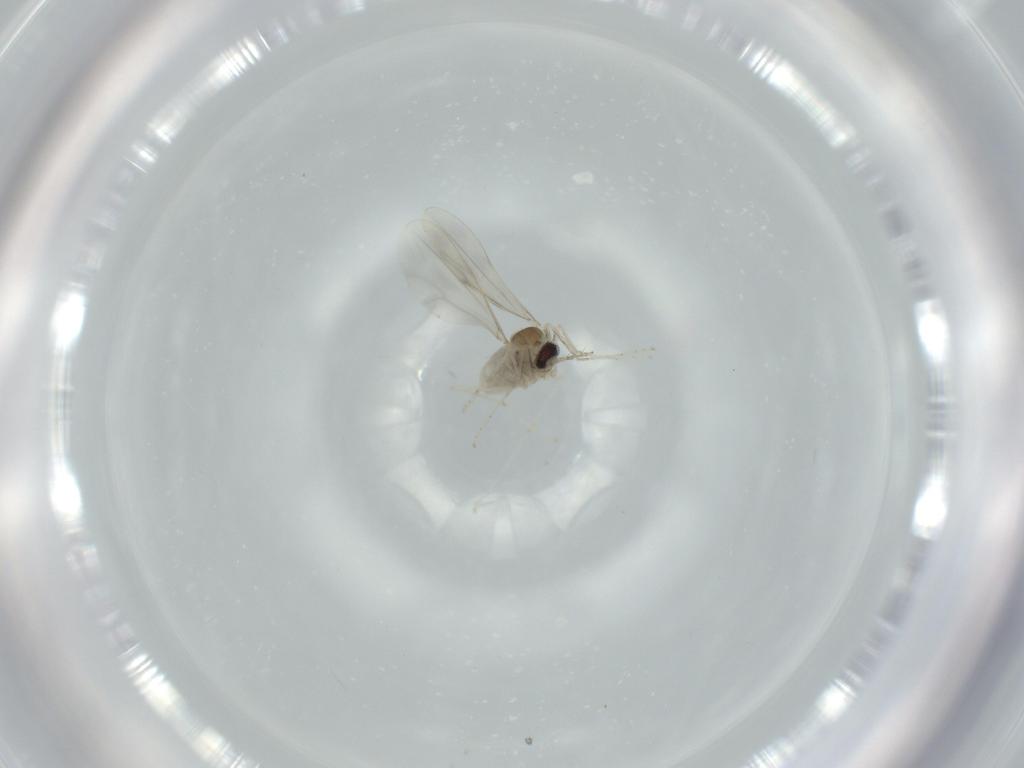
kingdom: Animalia
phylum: Arthropoda
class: Insecta
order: Diptera
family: Cecidomyiidae
